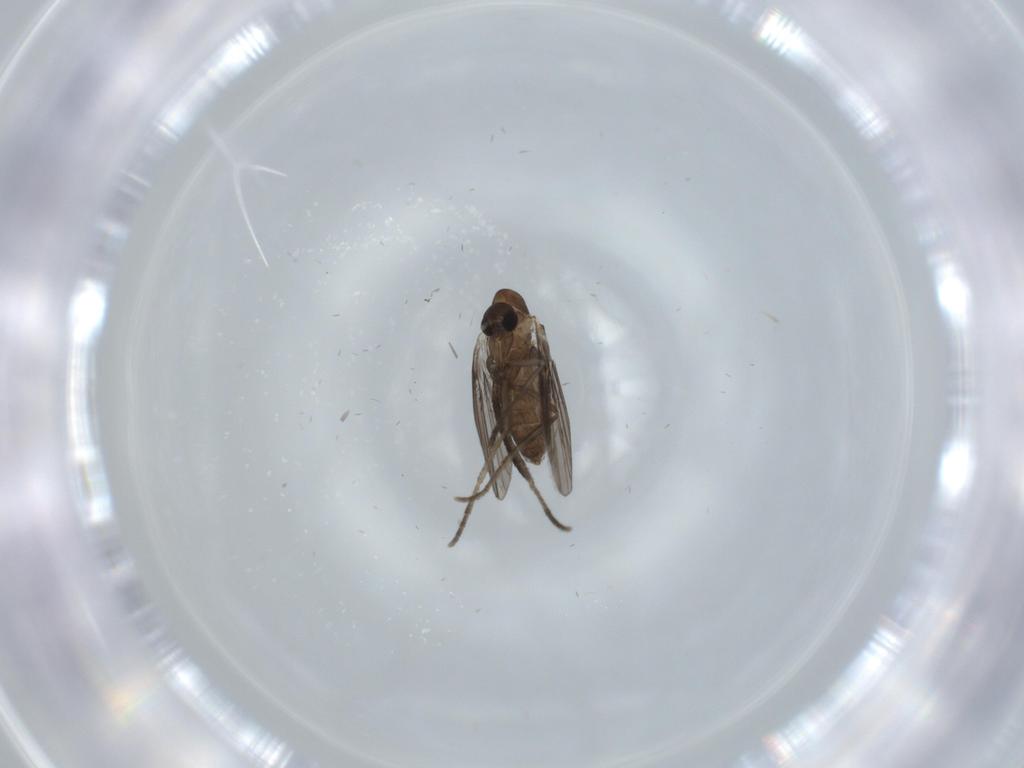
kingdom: Animalia
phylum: Arthropoda
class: Insecta
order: Diptera
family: Psychodidae
